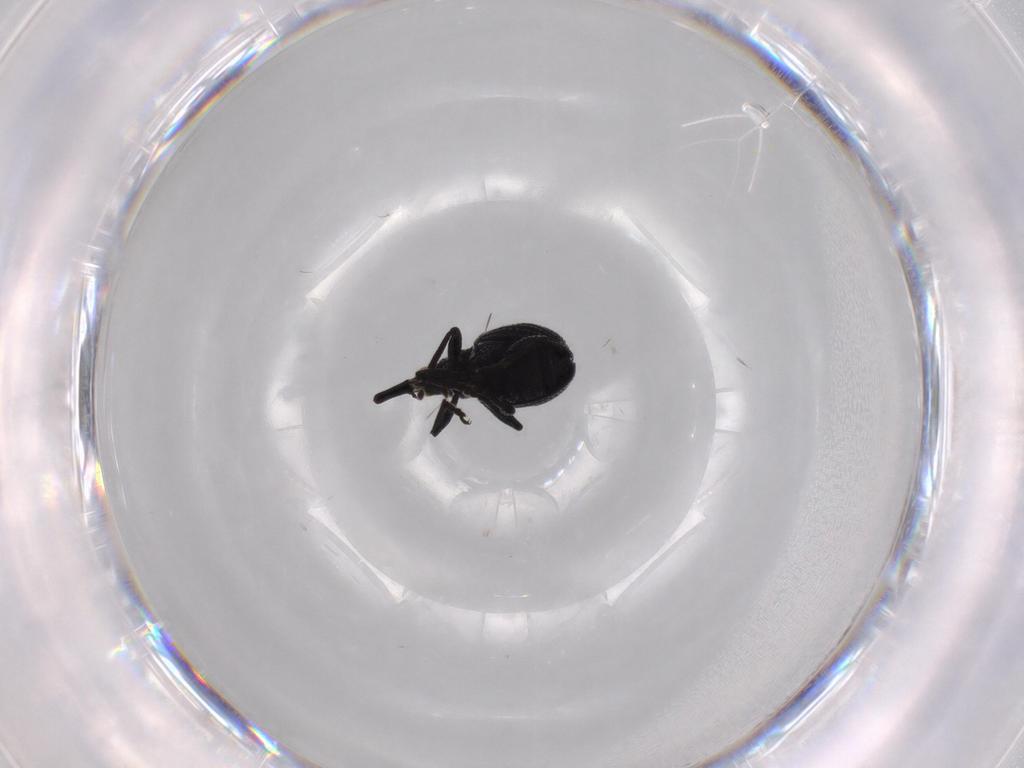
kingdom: Animalia
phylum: Arthropoda
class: Insecta
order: Coleoptera
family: Brentidae
